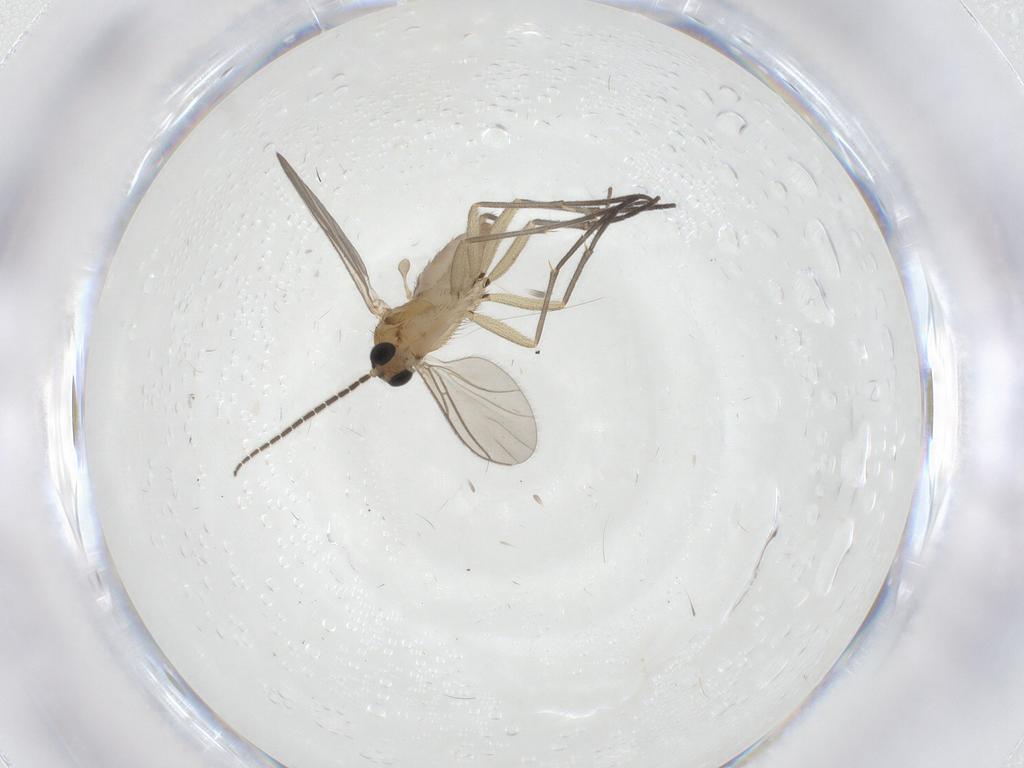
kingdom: Animalia
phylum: Arthropoda
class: Insecta
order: Diptera
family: Sciaridae
